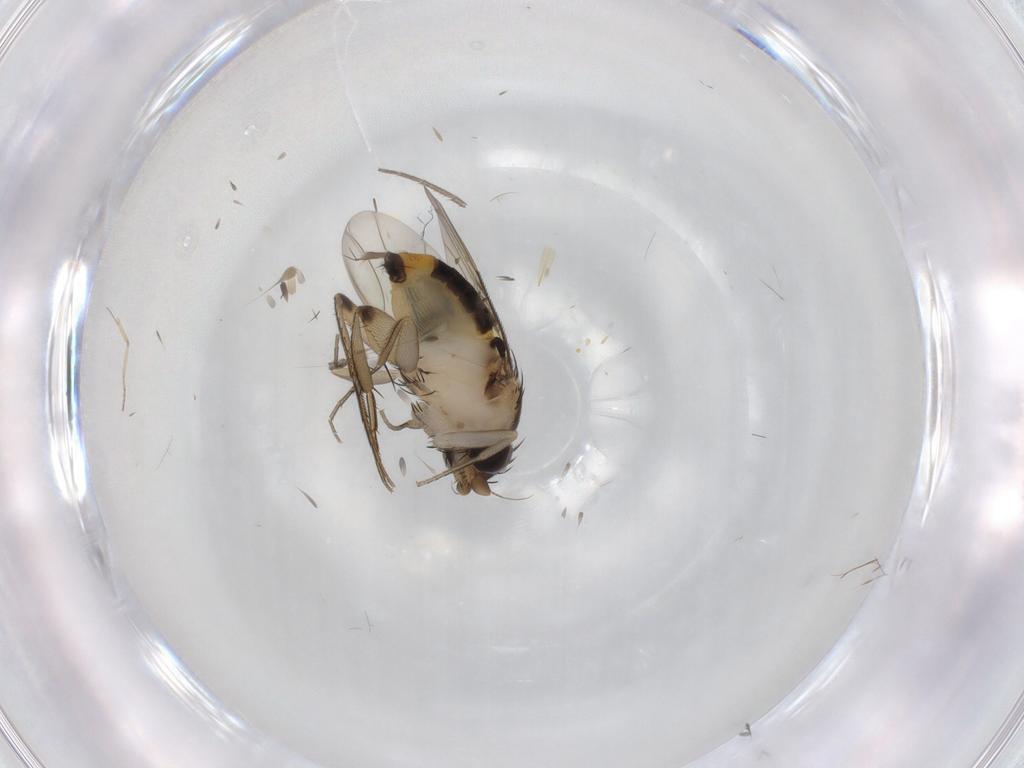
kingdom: Animalia
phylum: Arthropoda
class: Insecta
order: Diptera
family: Phoridae
